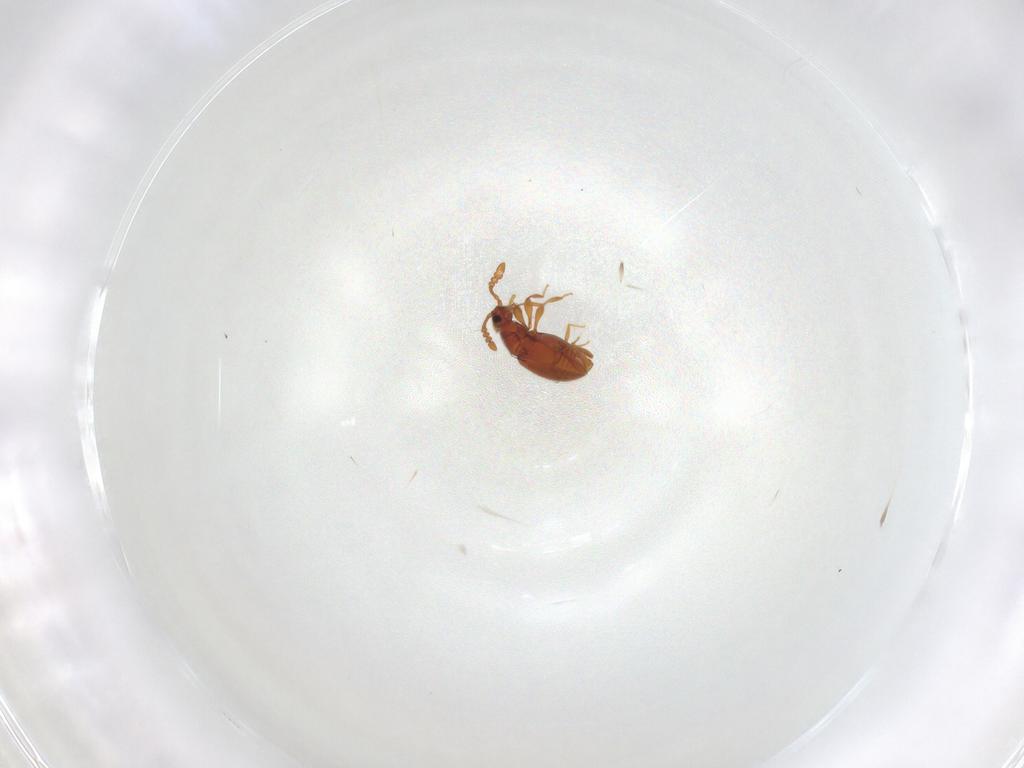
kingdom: Animalia
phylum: Arthropoda
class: Insecta
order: Coleoptera
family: Staphylinidae
